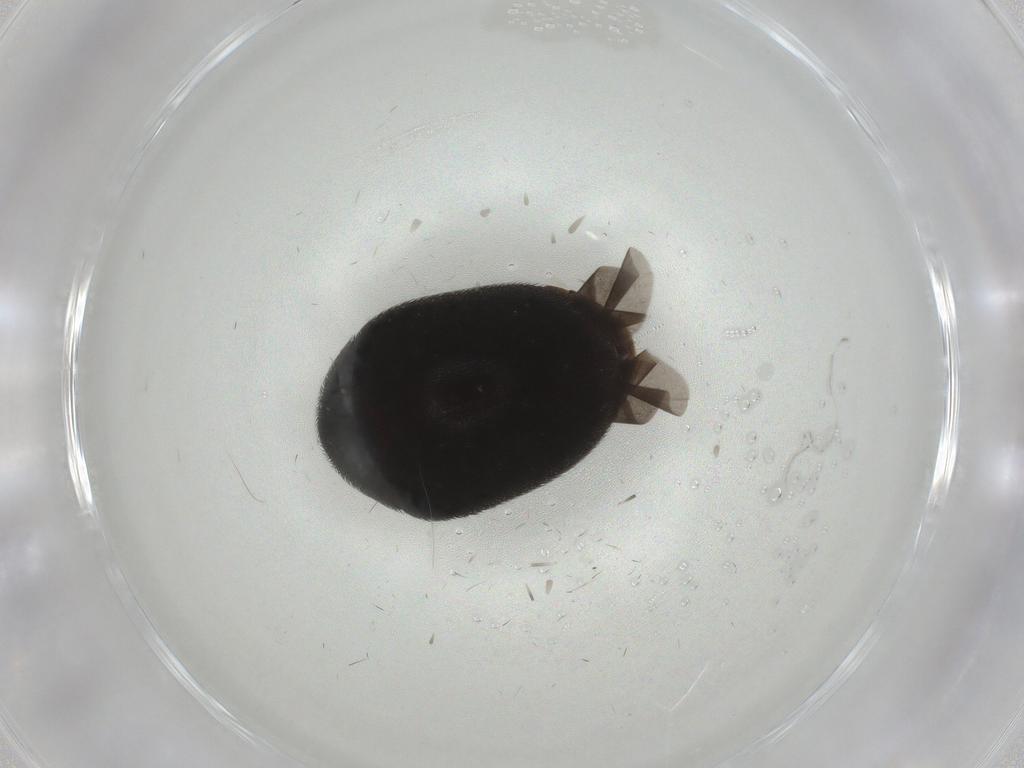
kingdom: Animalia
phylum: Arthropoda
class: Insecta
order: Coleoptera
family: Dermestidae
